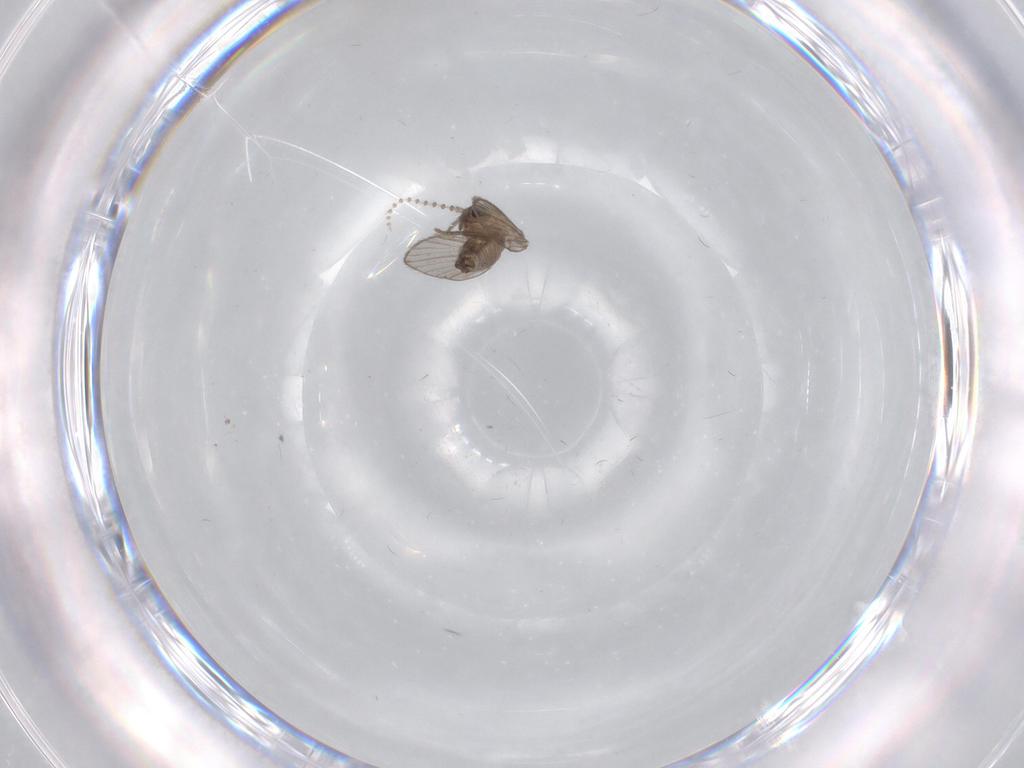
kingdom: Animalia
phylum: Arthropoda
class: Insecta
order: Diptera
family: Psychodidae
